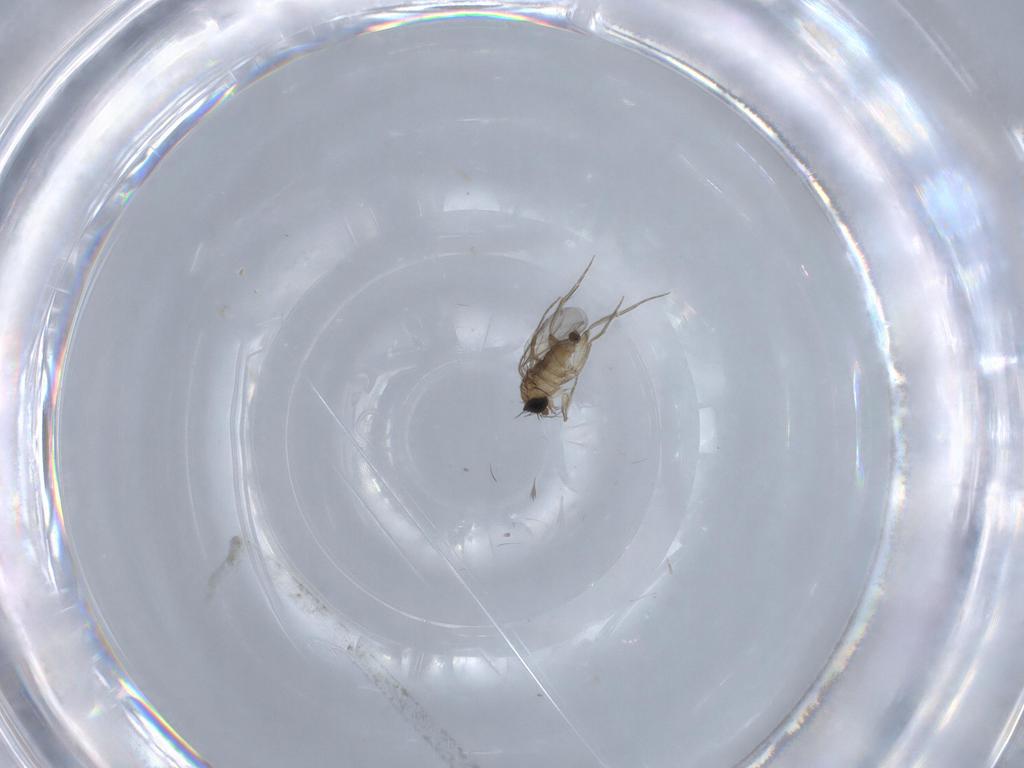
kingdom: Animalia
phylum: Arthropoda
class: Insecta
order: Diptera
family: Phoridae
